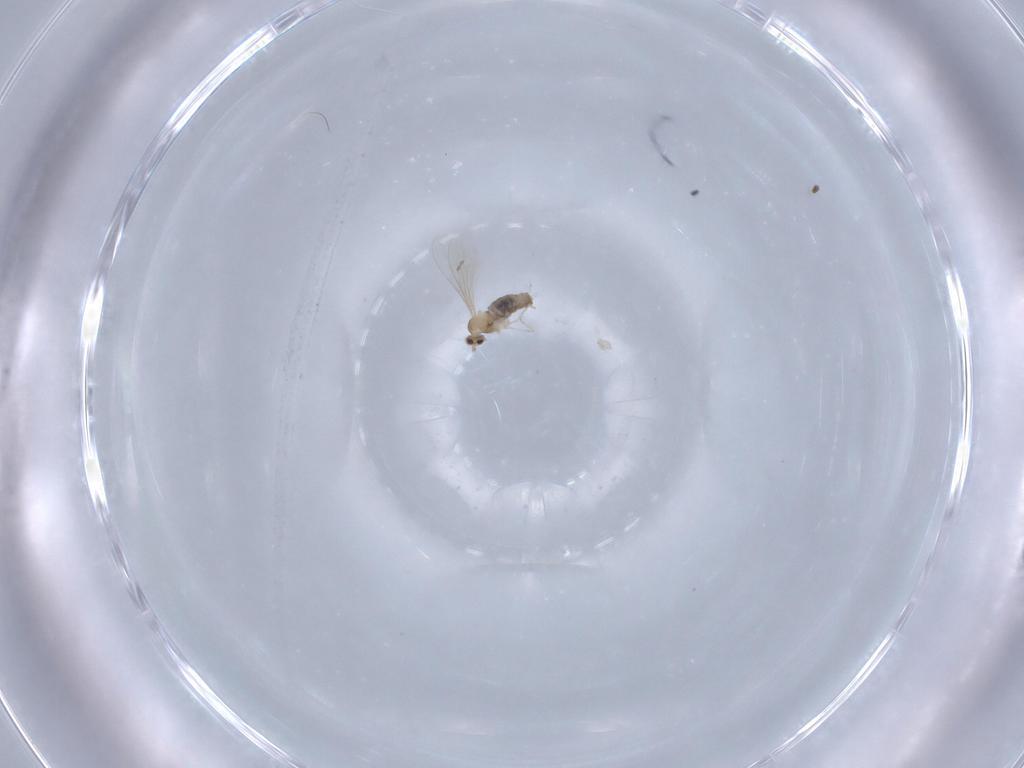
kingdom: Animalia
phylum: Arthropoda
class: Insecta
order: Diptera
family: Cecidomyiidae
